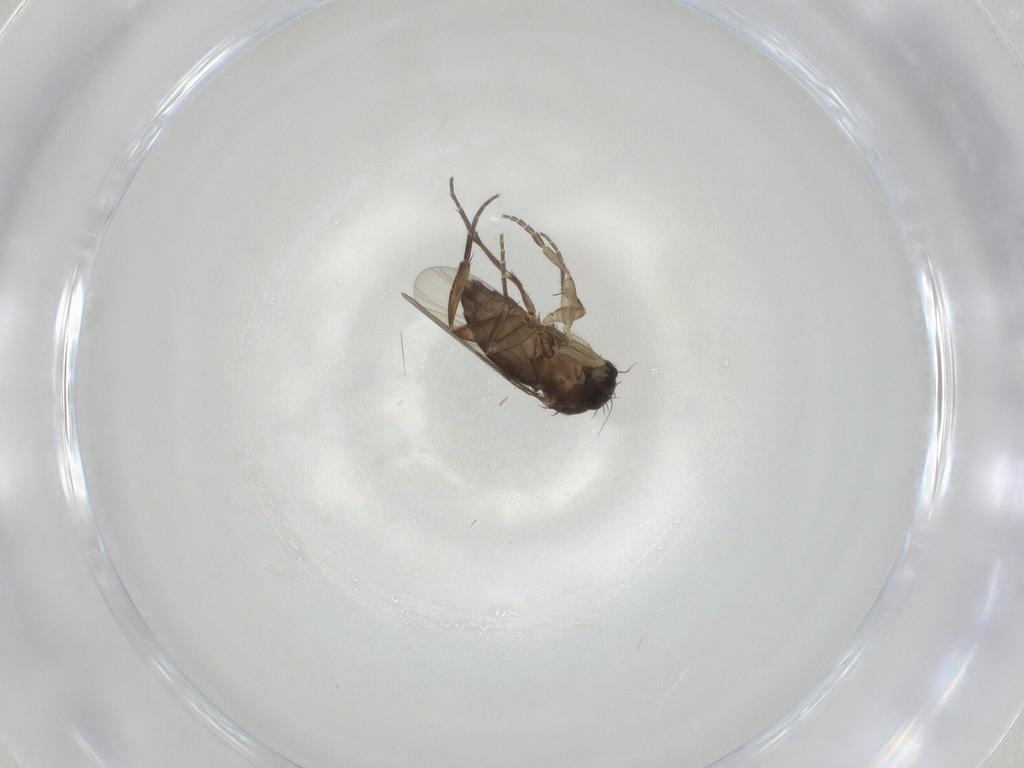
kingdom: Animalia
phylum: Arthropoda
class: Insecta
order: Diptera
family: Phoridae
